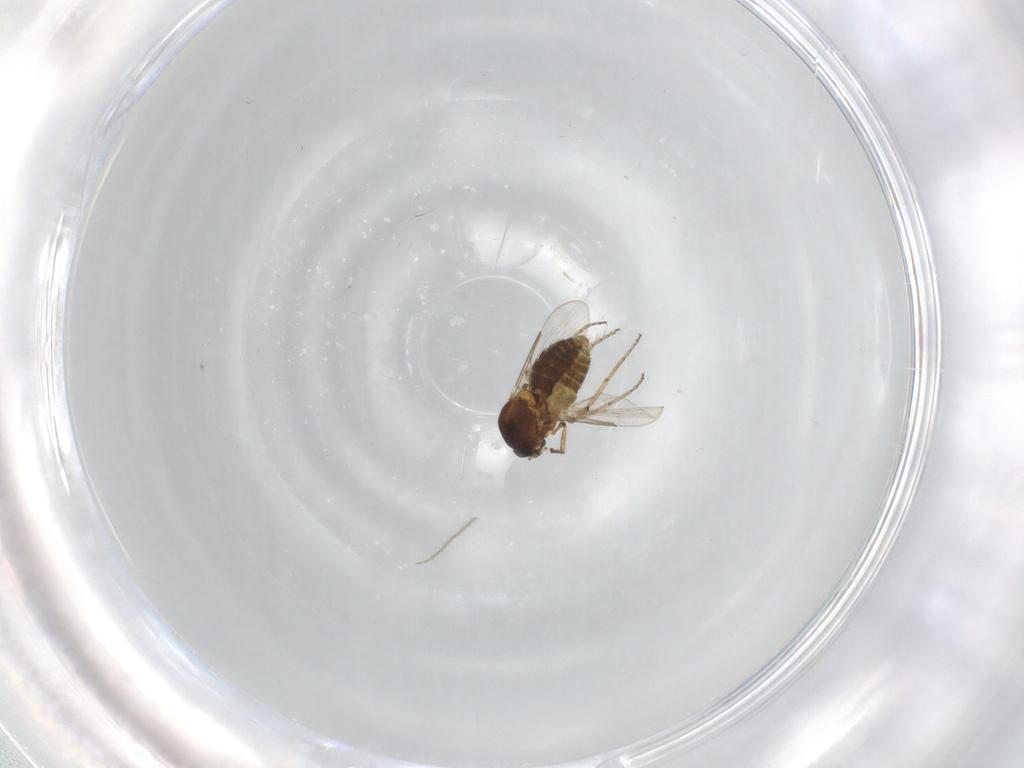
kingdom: Animalia
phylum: Arthropoda
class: Insecta
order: Diptera
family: Ceratopogonidae
